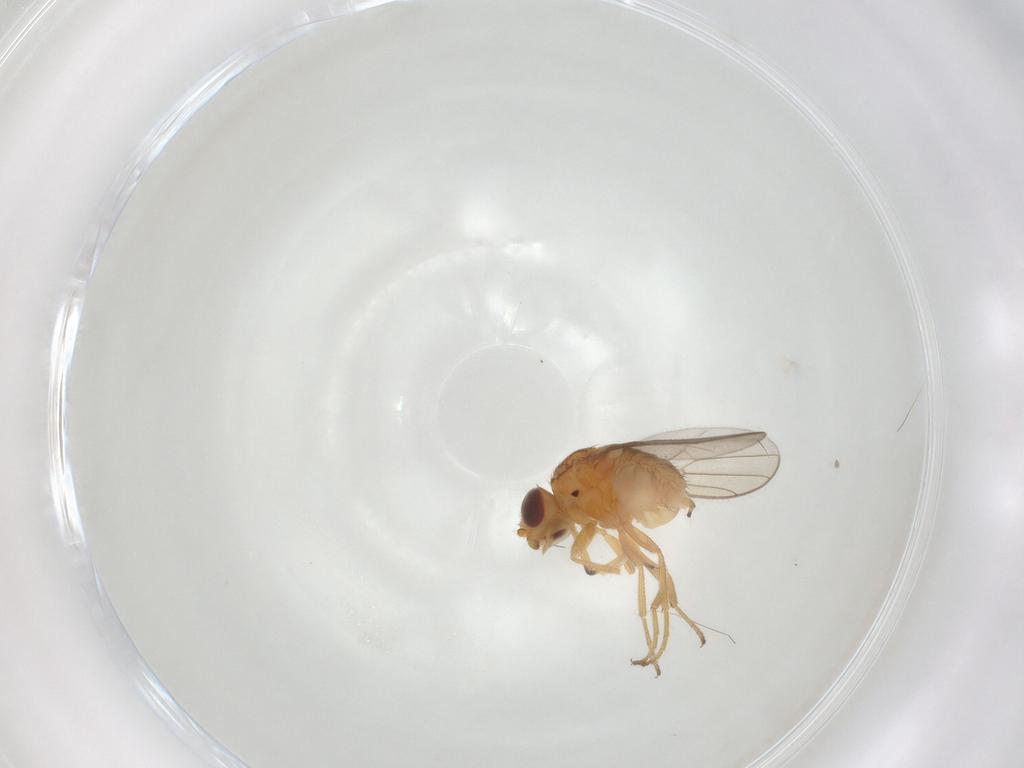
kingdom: Animalia
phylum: Arthropoda
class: Insecta
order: Diptera
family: Chloropidae
